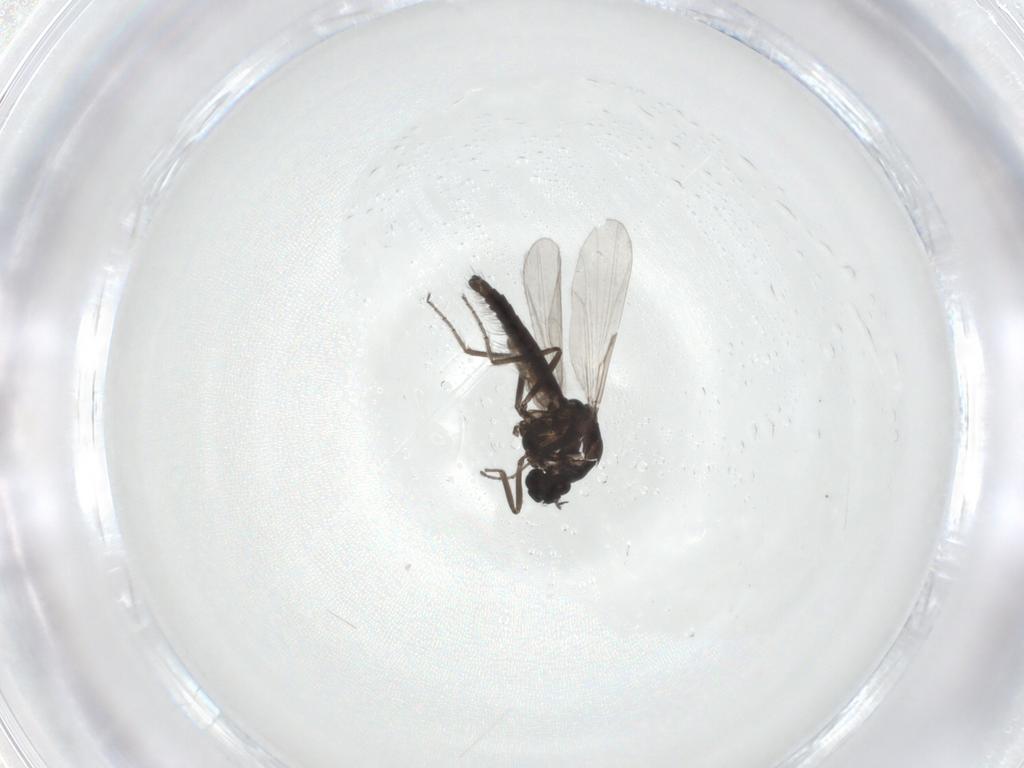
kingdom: Animalia
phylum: Arthropoda
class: Insecta
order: Diptera
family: Ceratopogonidae
